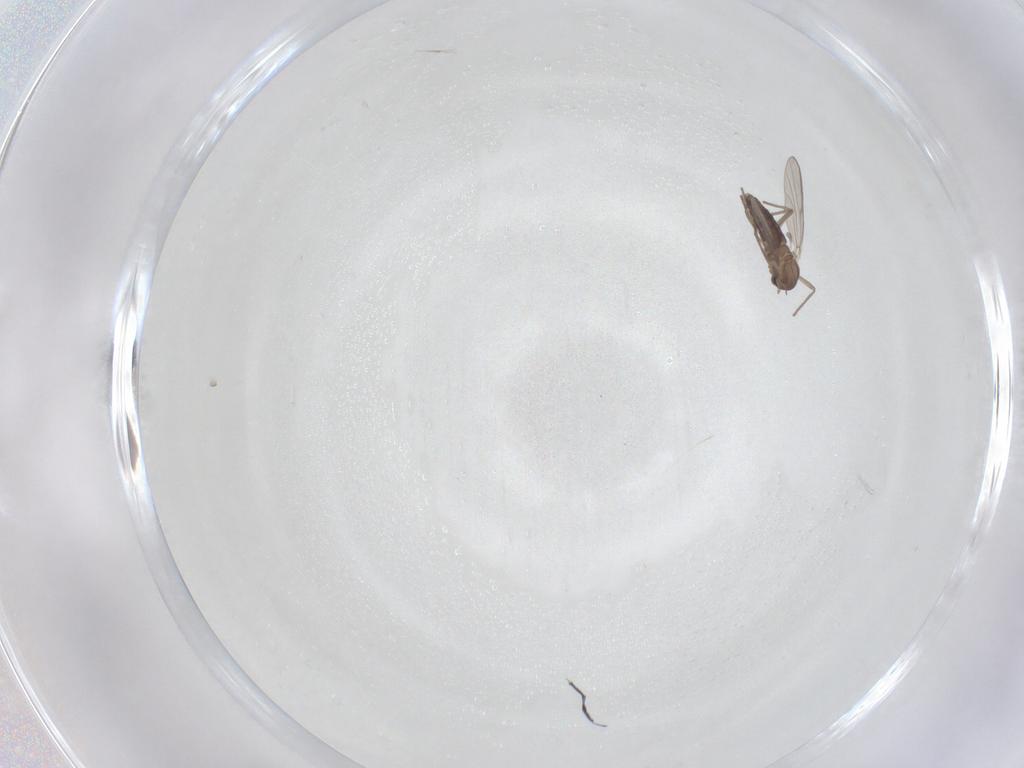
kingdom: Animalia
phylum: Arthropoda
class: Insecta
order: Diptera
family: Chironomidae
